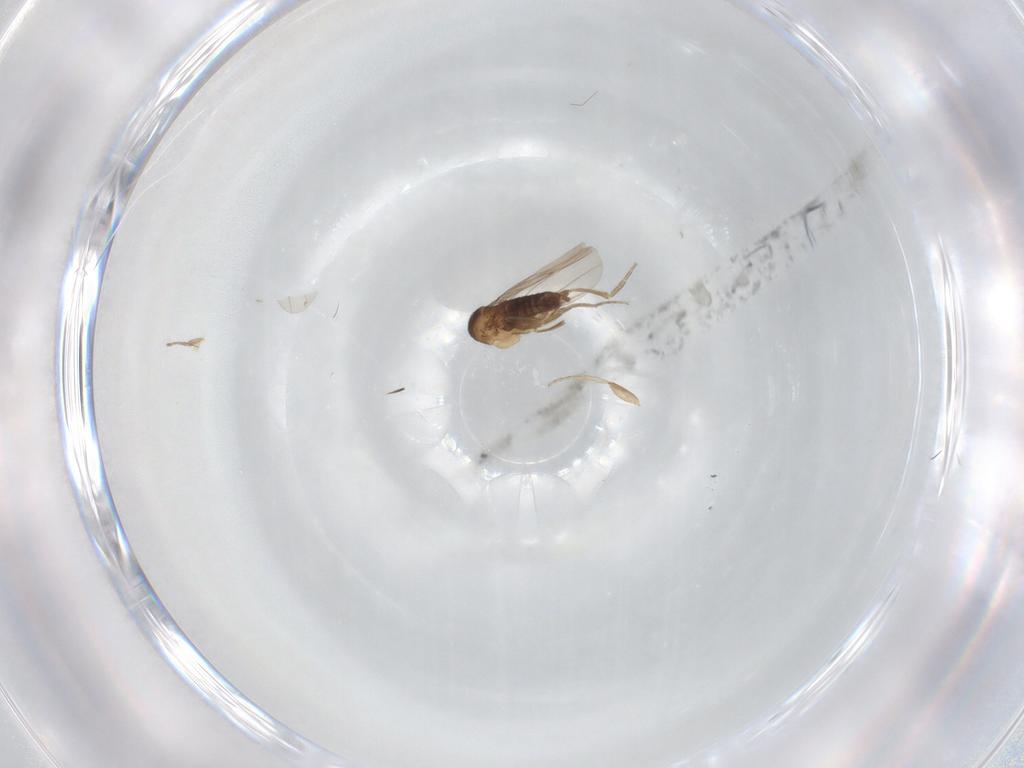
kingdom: Animalia
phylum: Arthropoda
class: Insecta
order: Diptera
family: Phoridae
